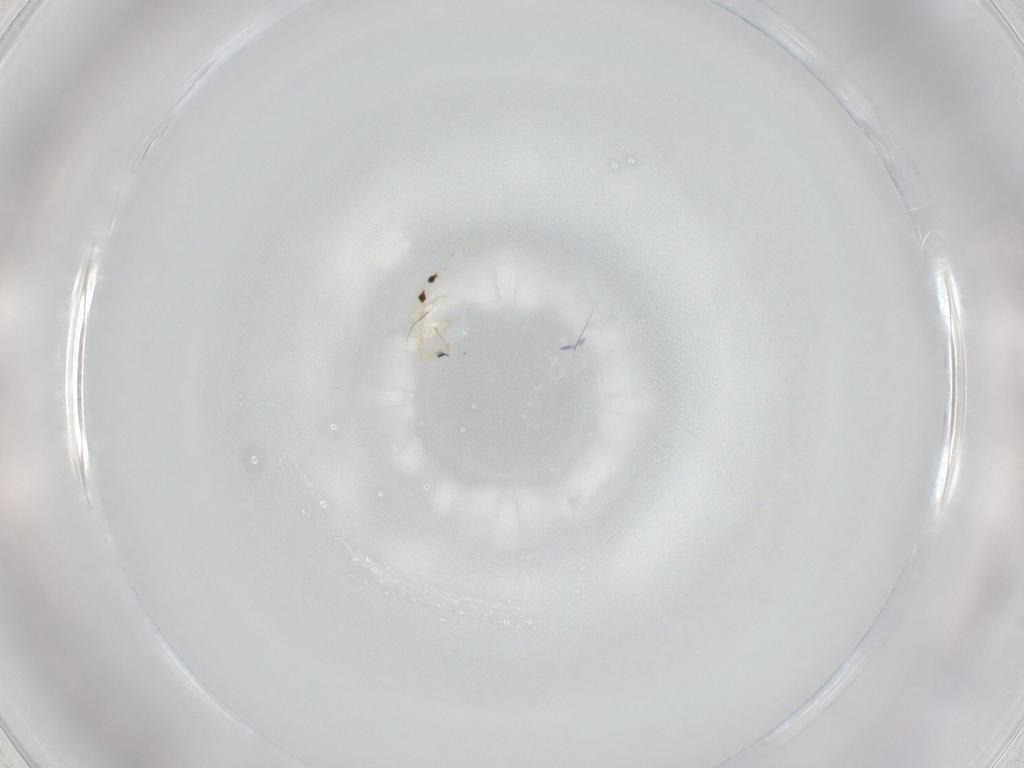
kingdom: Animalia
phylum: Arthropoda
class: Collembola
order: Entomobryomorpha
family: Entomobryidae
